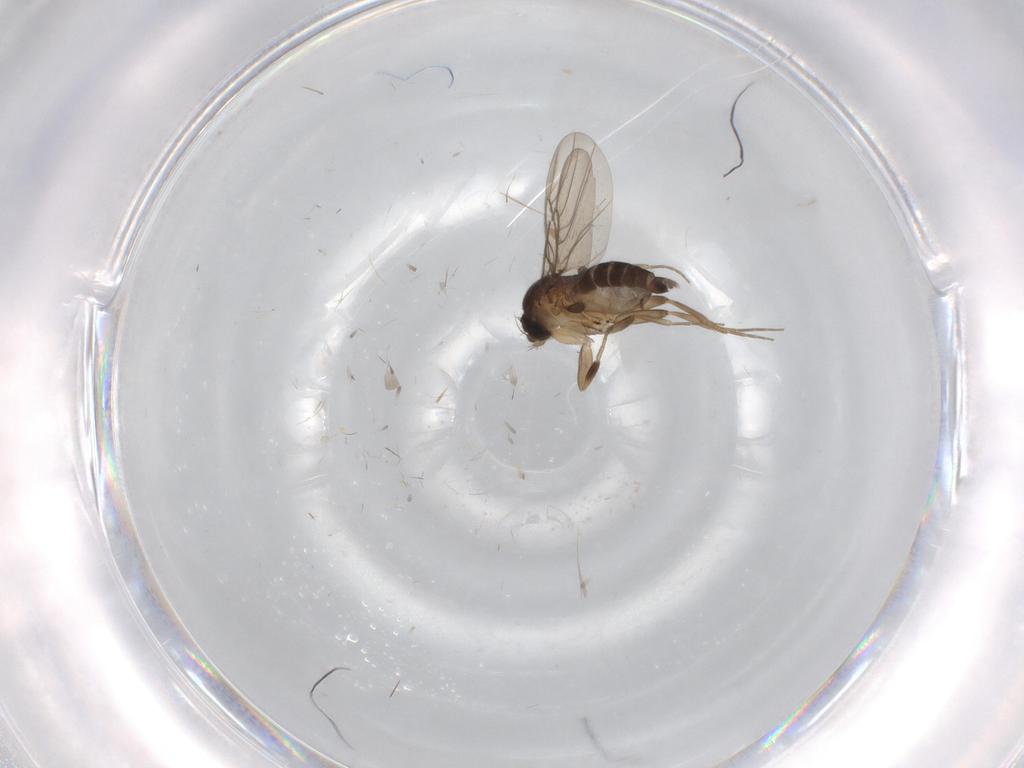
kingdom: Animalia
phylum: Arthropoda
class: Insecta
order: Diptera
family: Phoridae
